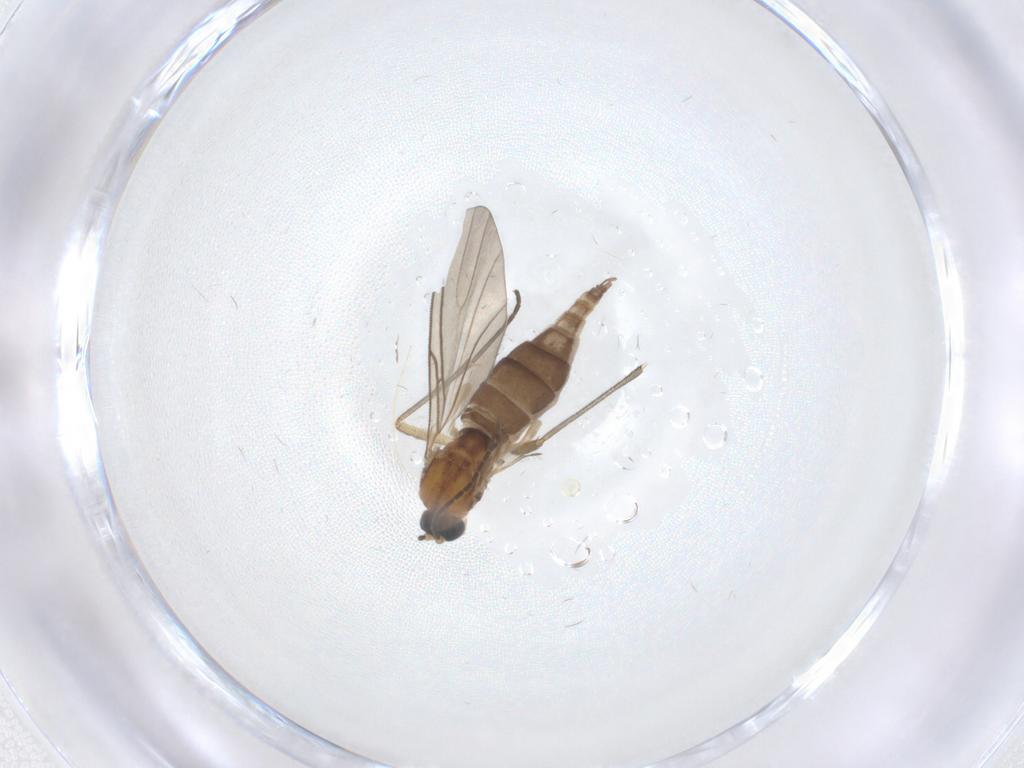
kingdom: Animalia
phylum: Arthropoda
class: Insecta
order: Diptera
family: Sciaridae
